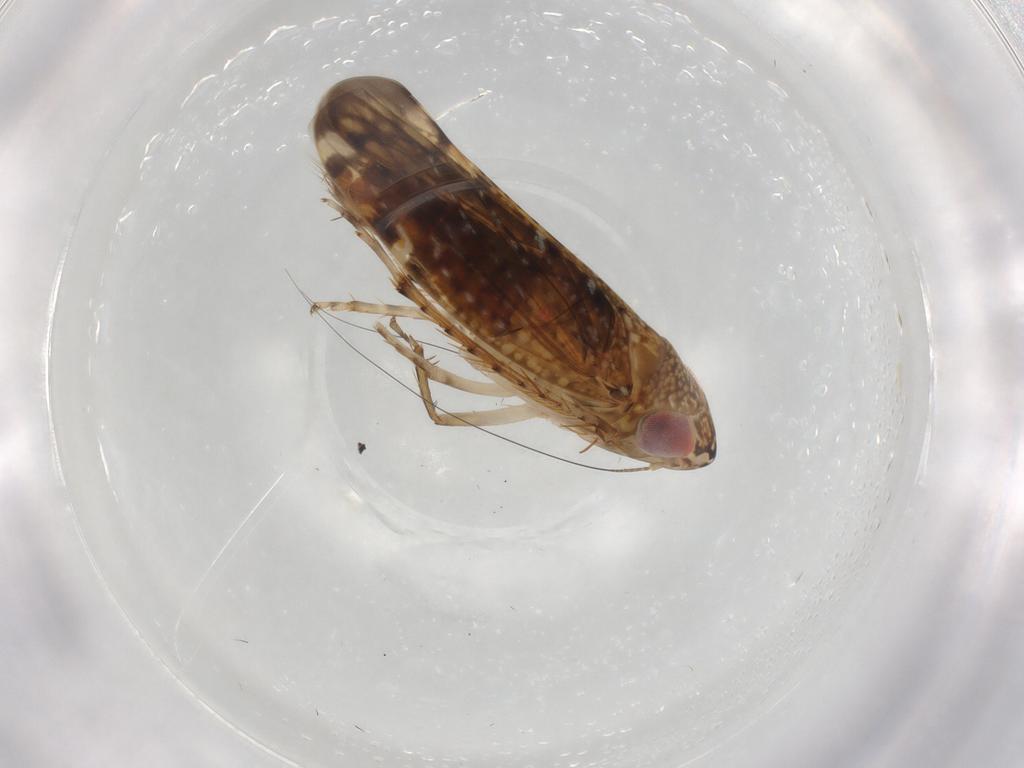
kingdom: Animalia
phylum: Arthropoda
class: Insecta
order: Hemiptera
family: Cicadellidae
